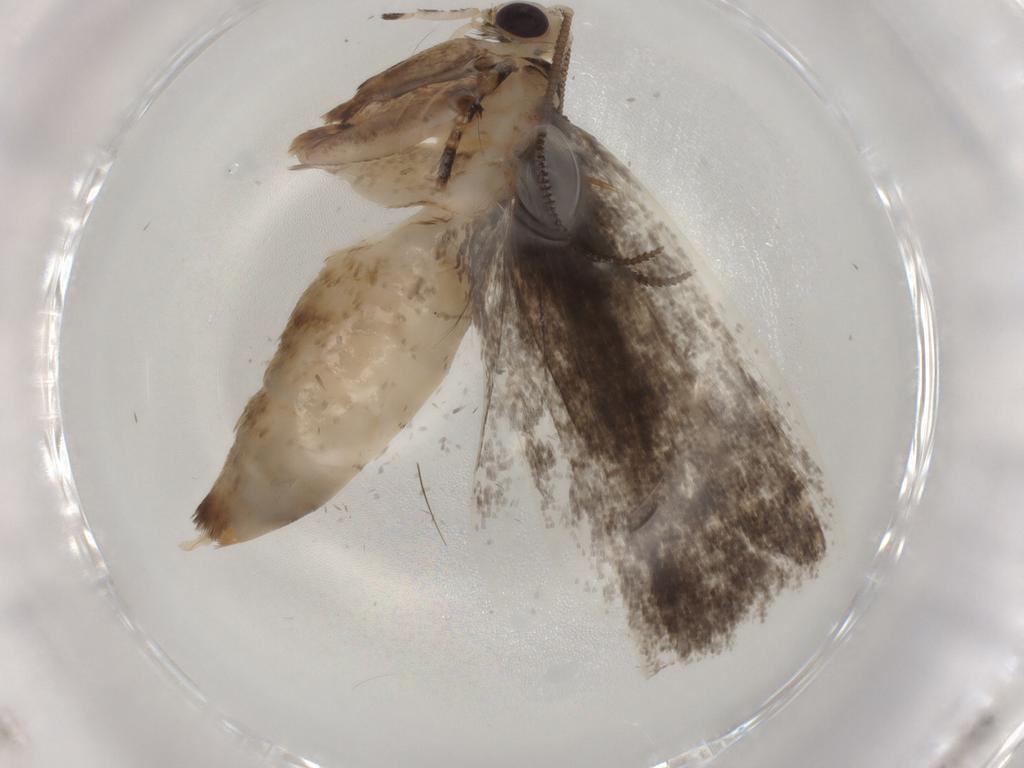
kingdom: Animalia
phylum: Arthropoda
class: Insecta
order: Lepidoptera
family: Tineidae
